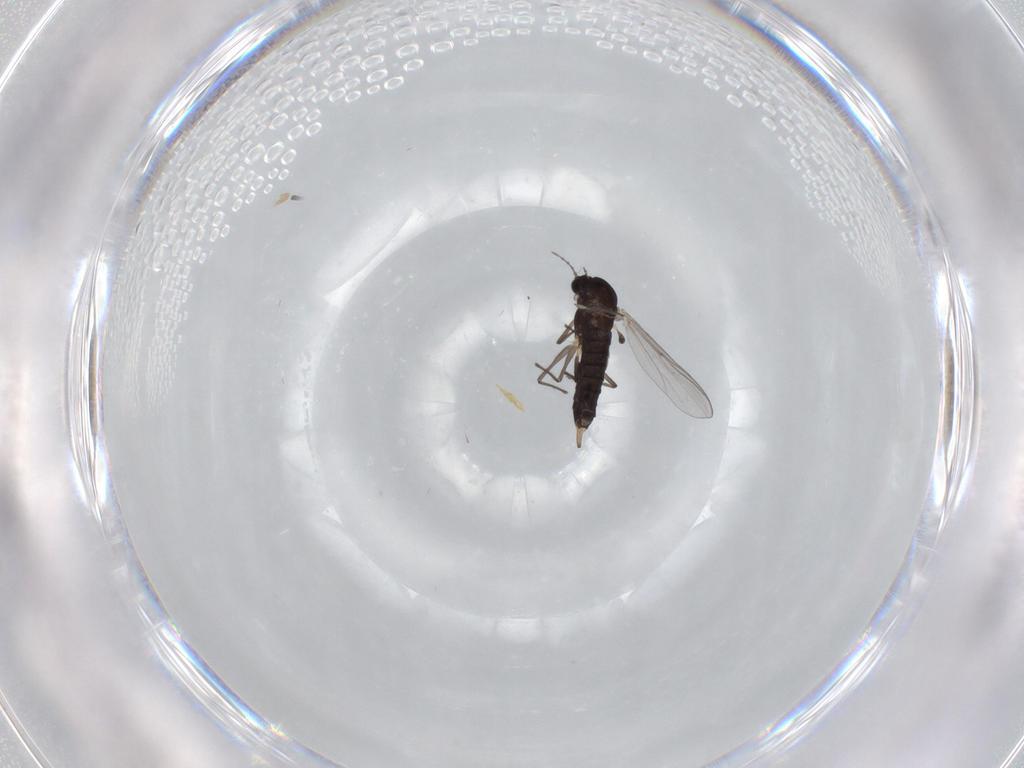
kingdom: Animalia
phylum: Arthropoda
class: Insecta
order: Diptera
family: Chironomidae
